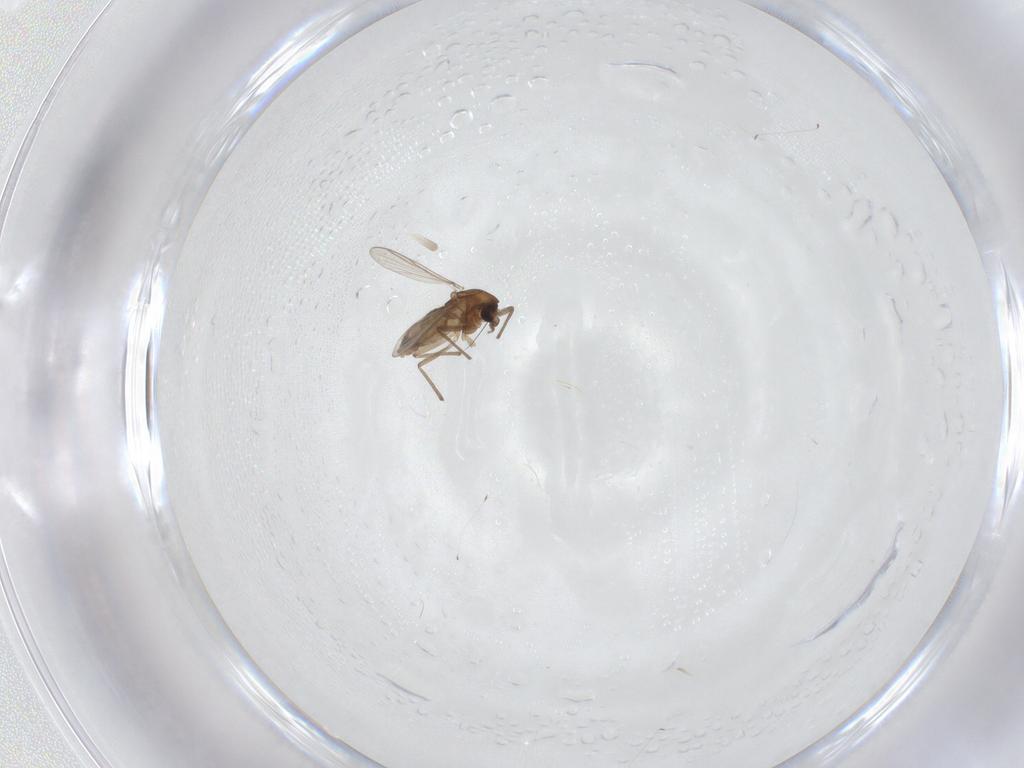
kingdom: Animalia
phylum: Arthropoda
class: Insecta
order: Diptera
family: Chironomidae
